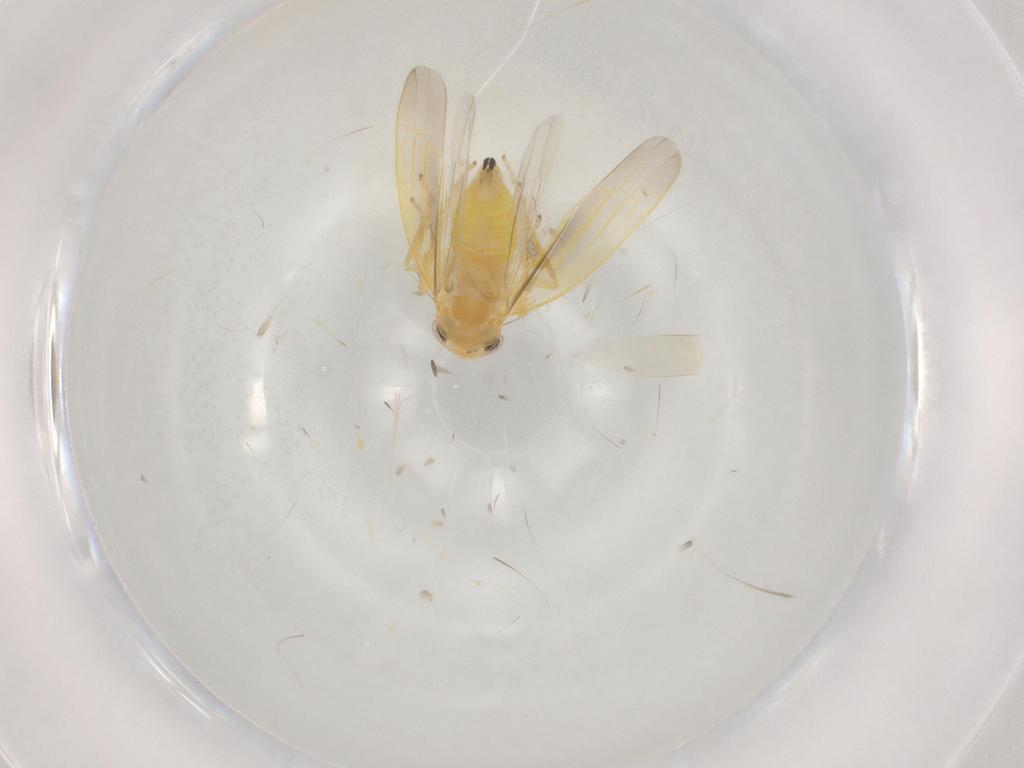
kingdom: Animalia
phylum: Arthropoda
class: Insecta
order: Hemiptera
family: Cicadellidae
